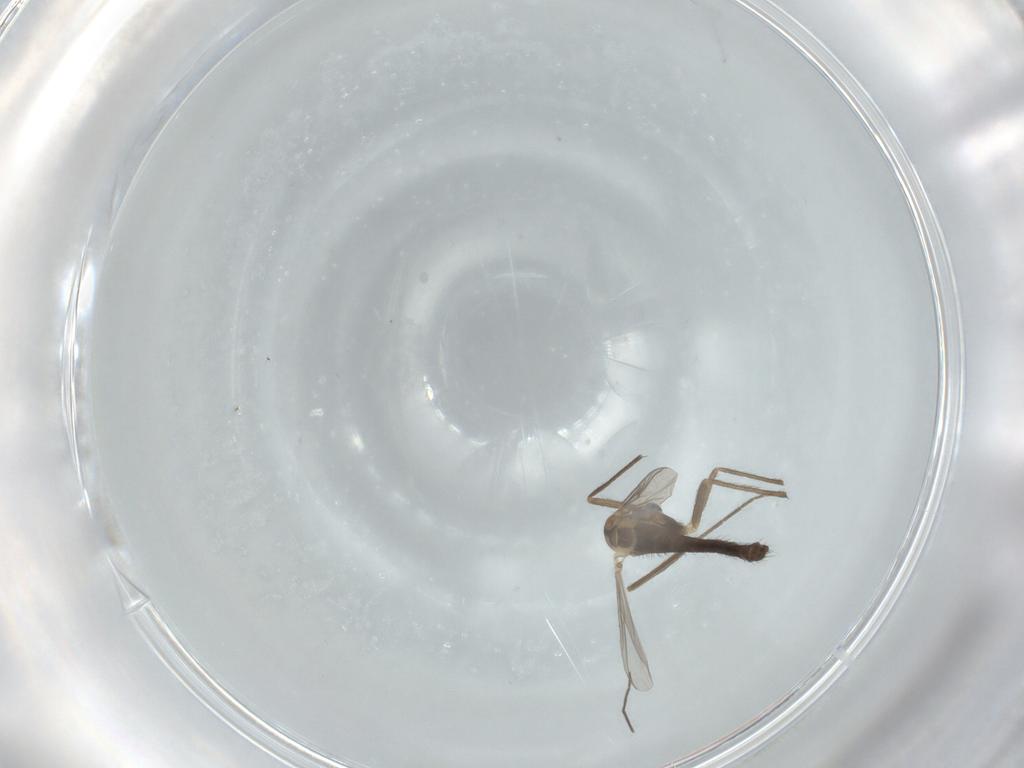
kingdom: Animalia
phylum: Arthropoda
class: Insecta
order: Diptera
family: Chironomidae
